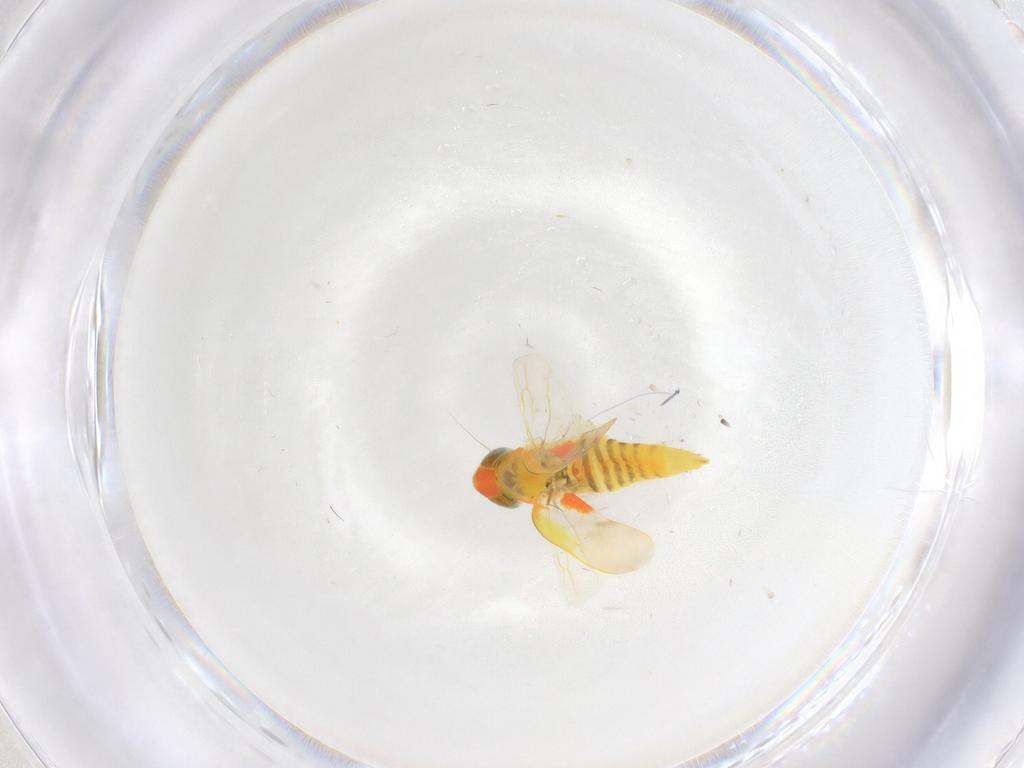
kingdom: Animalia
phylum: Arthropoda
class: Insecta
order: Hemiptera
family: Cicadellidae
